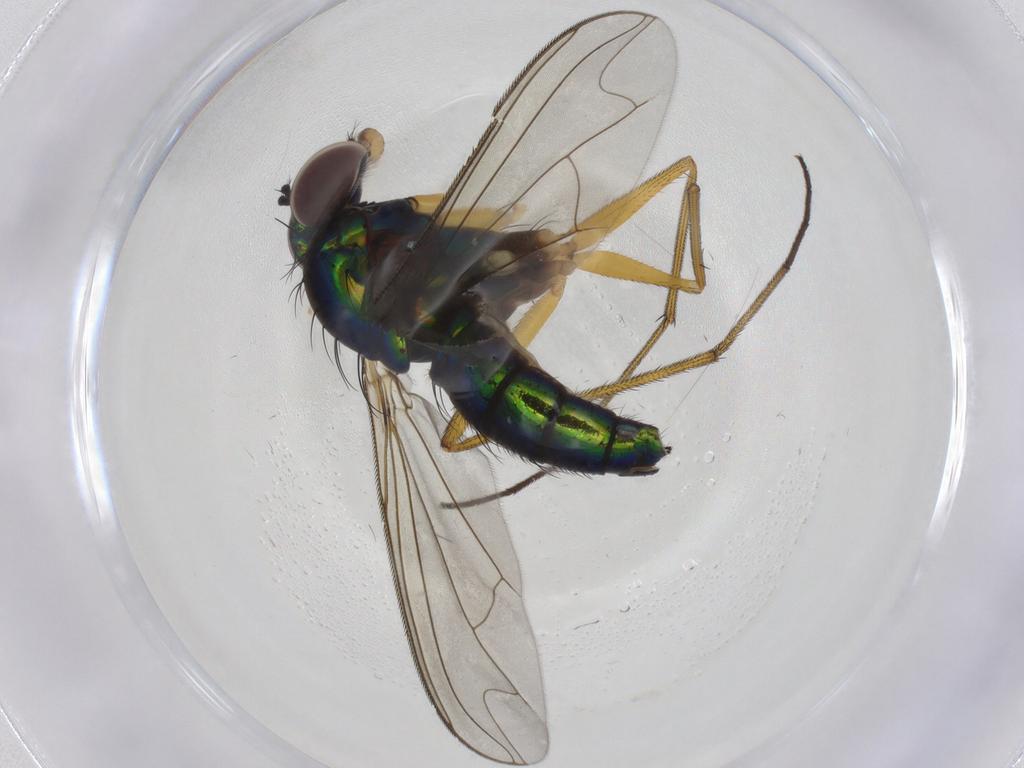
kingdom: Animalia
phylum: Arthropoda
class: Insecta
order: Diptera
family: Dolichopodidae
